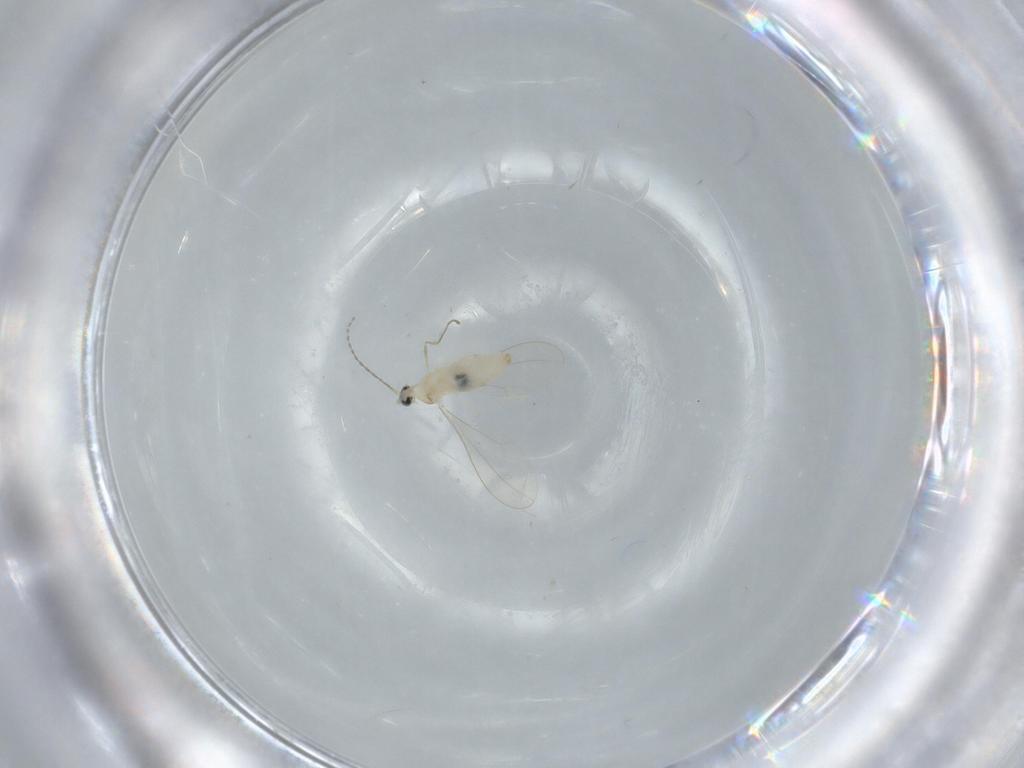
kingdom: Animalia
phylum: Arthropoda
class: Insecta
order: Diptera
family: Cecidomyiidae
